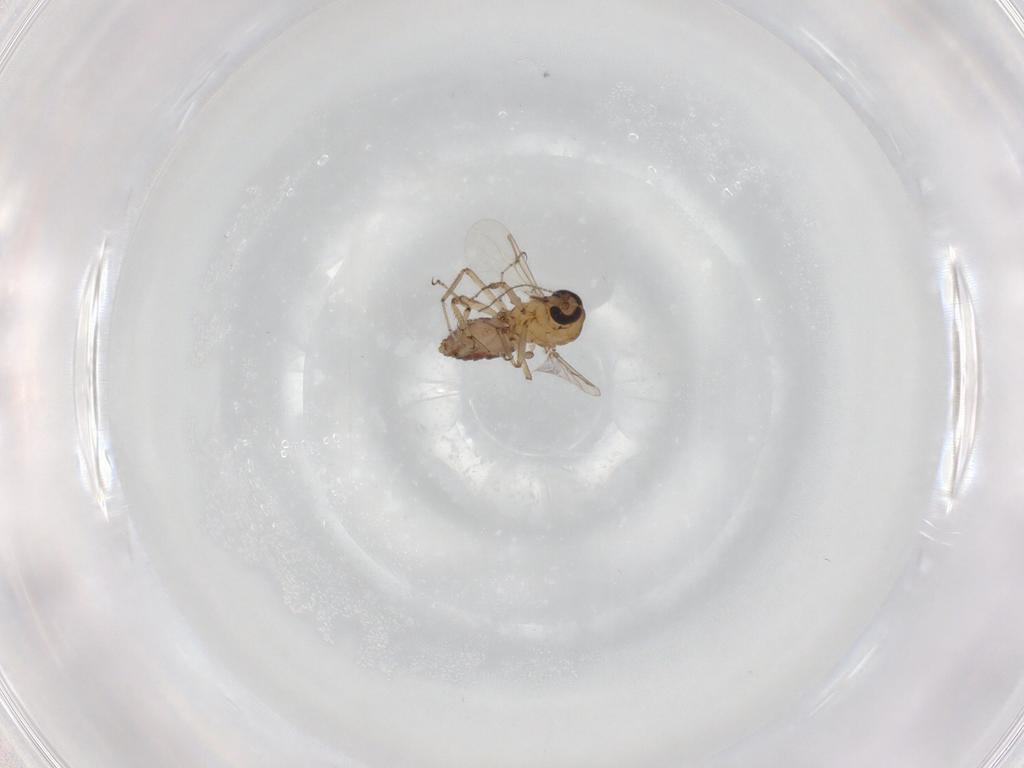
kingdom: Animalia
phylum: Arthropoda
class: Insecta
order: Diptera
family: Ceratopogonidae
